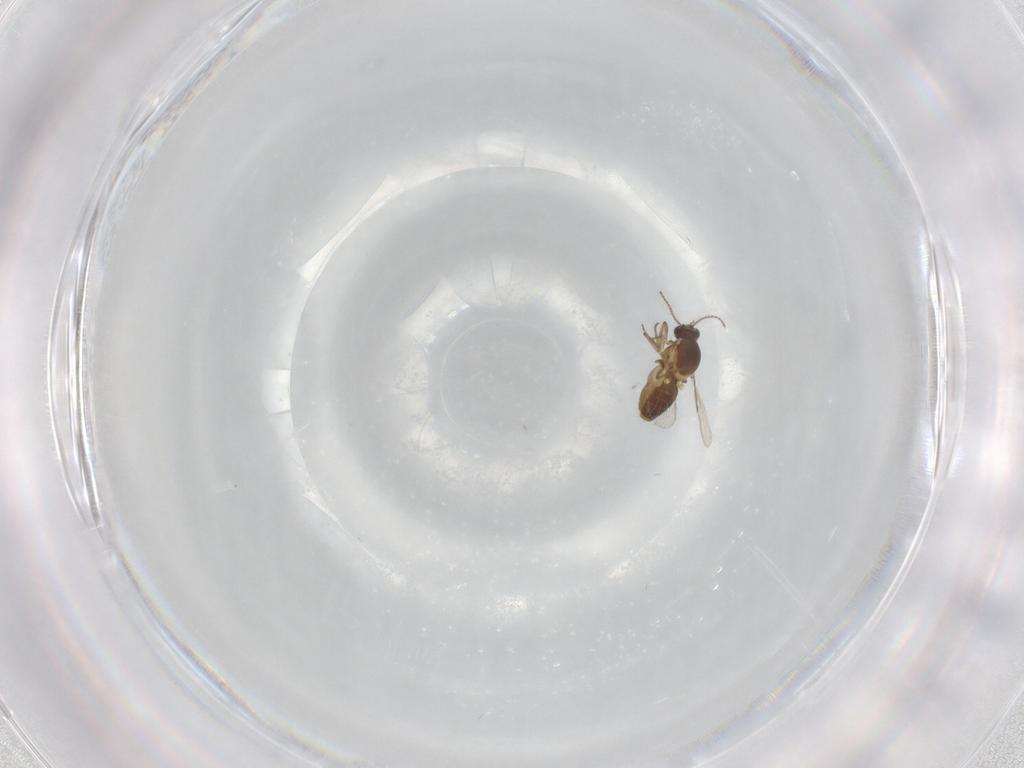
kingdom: Animalia
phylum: Arthropoda
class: Insecta
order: Diptera
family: Ceratopogonidae
